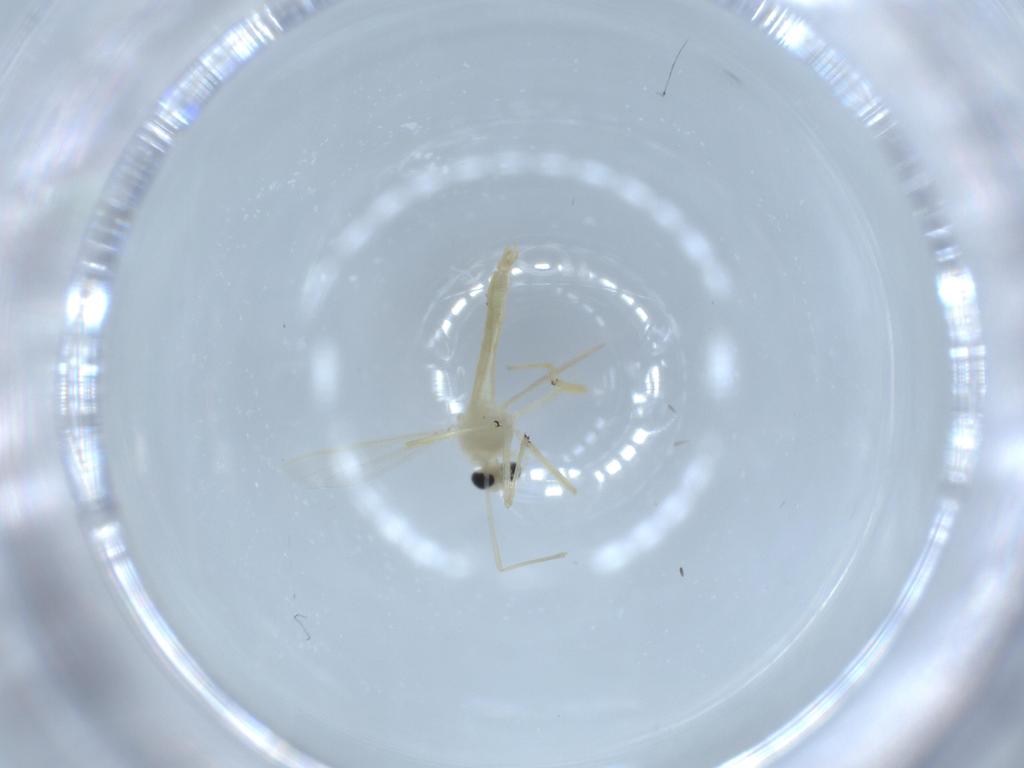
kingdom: Animalia
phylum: Arthropoda
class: Insecta
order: Diptera
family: Chironomidae
